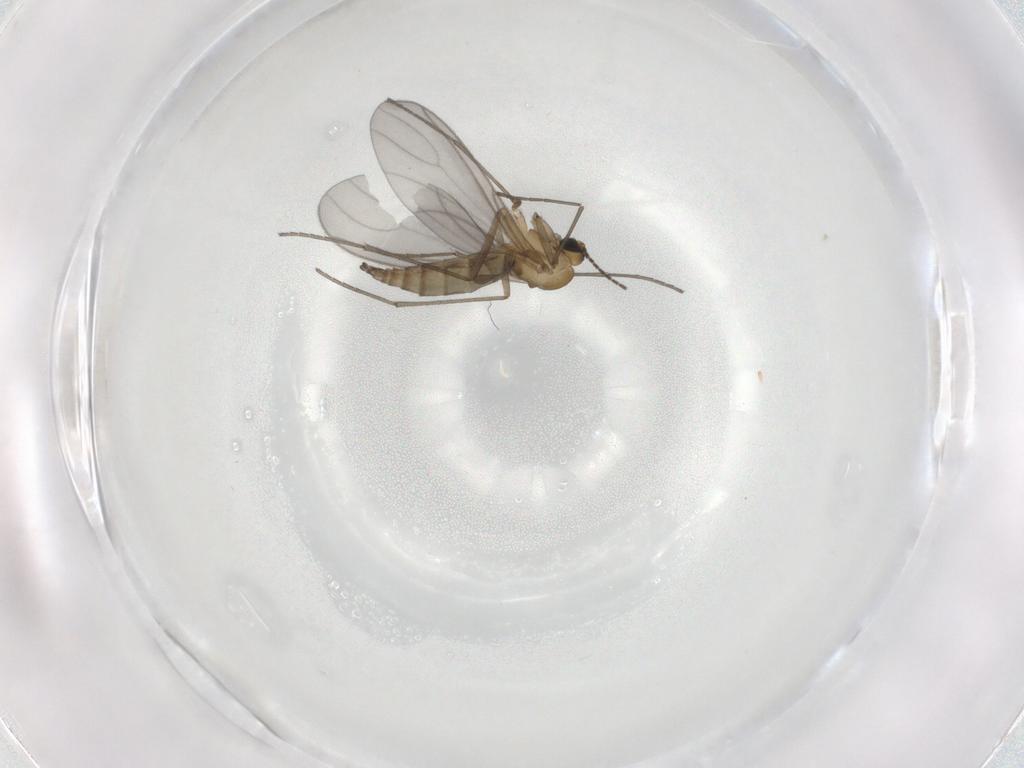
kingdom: Animalia
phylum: Arthropoda
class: Insecta
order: Diptera
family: Sciaridae
